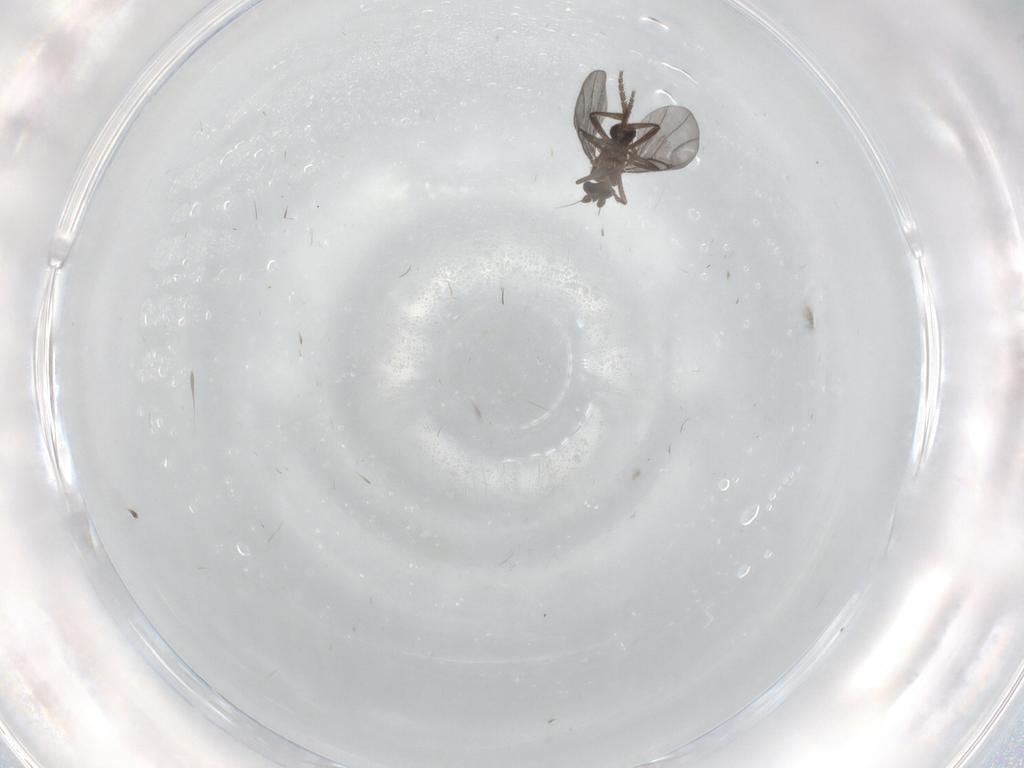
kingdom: Animalia
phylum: Arthropoda
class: Insecta
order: Diptera
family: Phoridae
